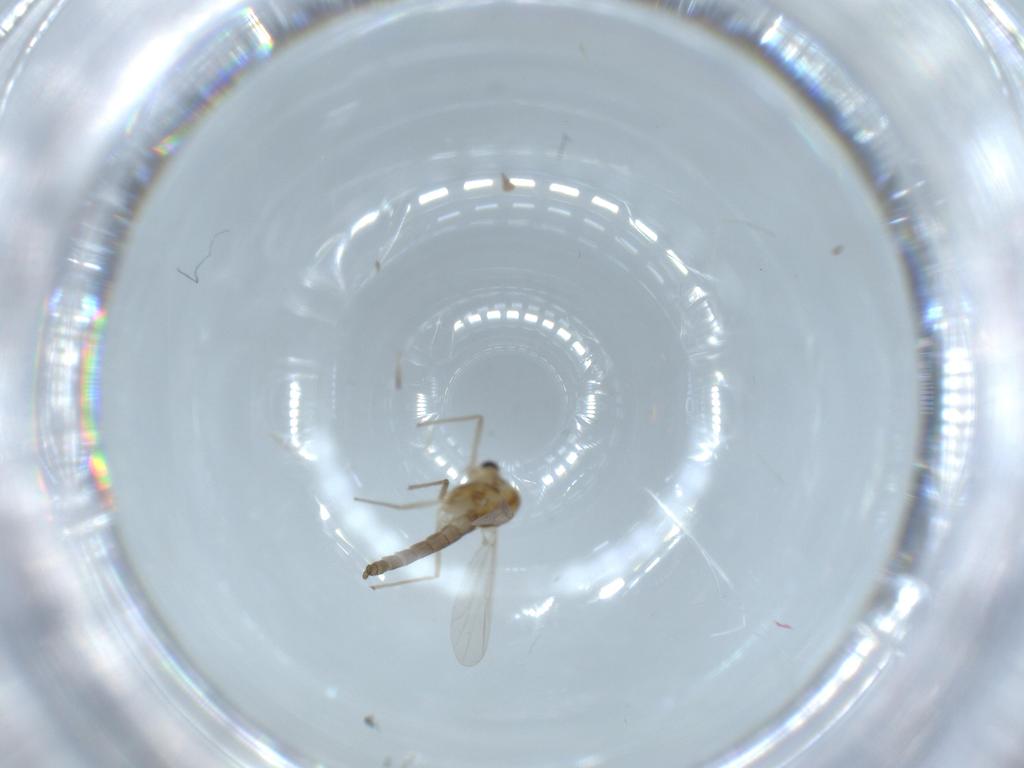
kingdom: Animalia
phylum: Arthropoda
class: Insecta
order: Diptera
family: Chironomidae
